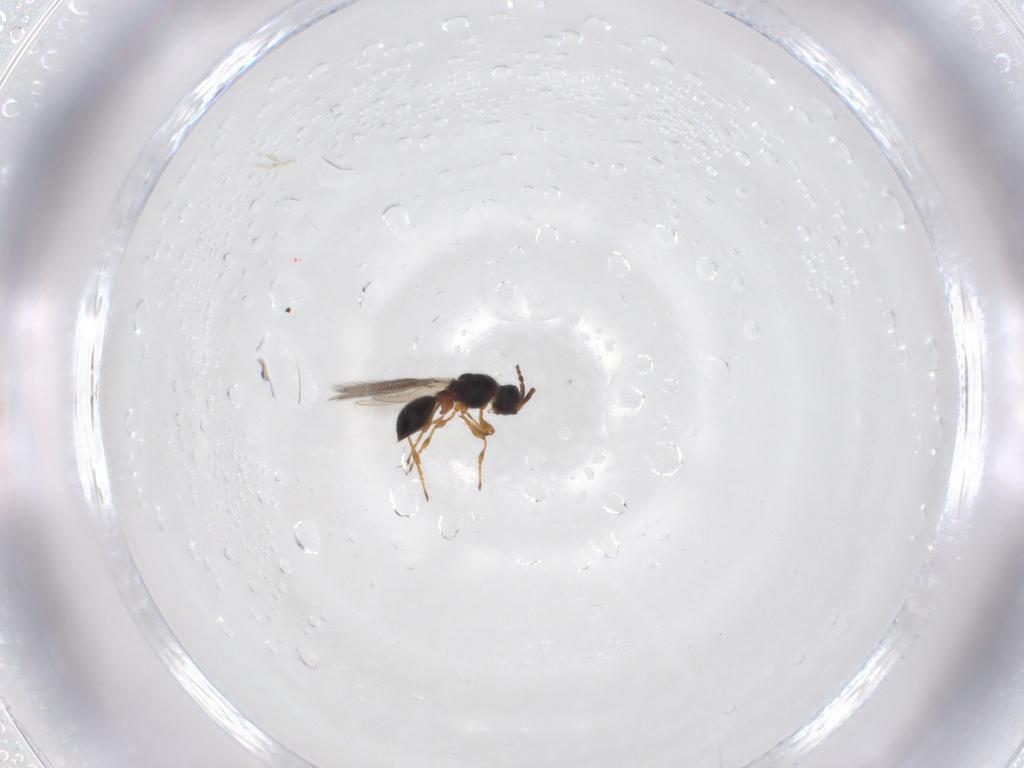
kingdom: Animalia
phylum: Arthropoda
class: Insecta
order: Hymenoptera
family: Diapriidae
